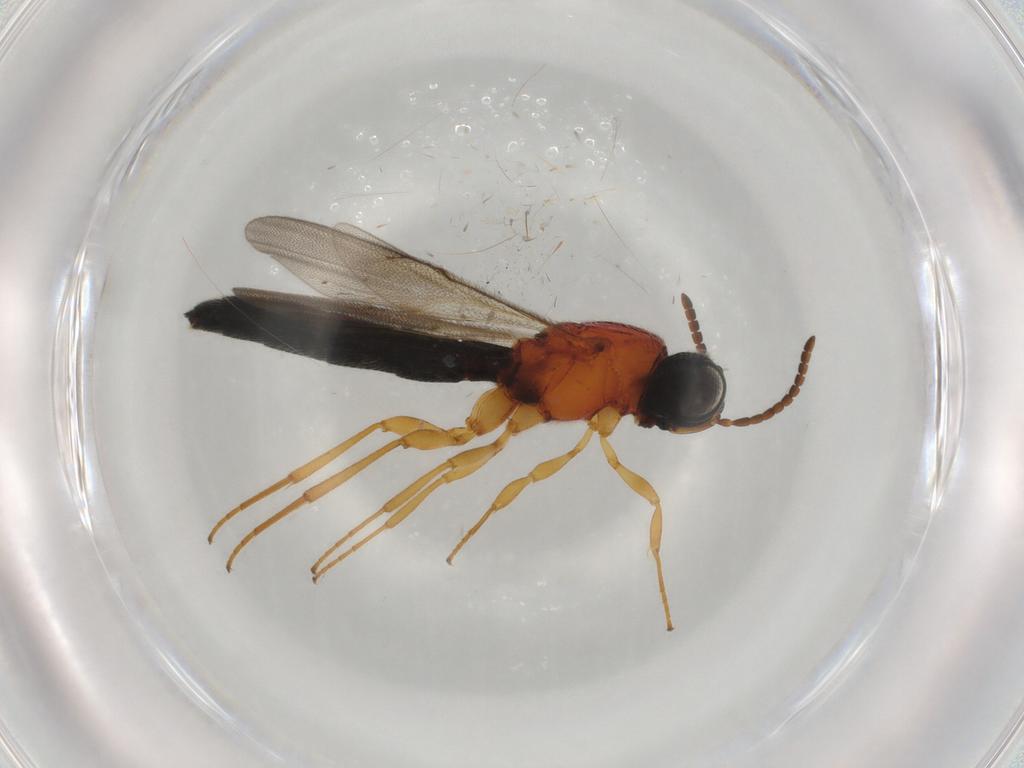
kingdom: Animalia
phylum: Arthropoda
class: Insecta
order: Hymenoptera
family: Scelionidae
